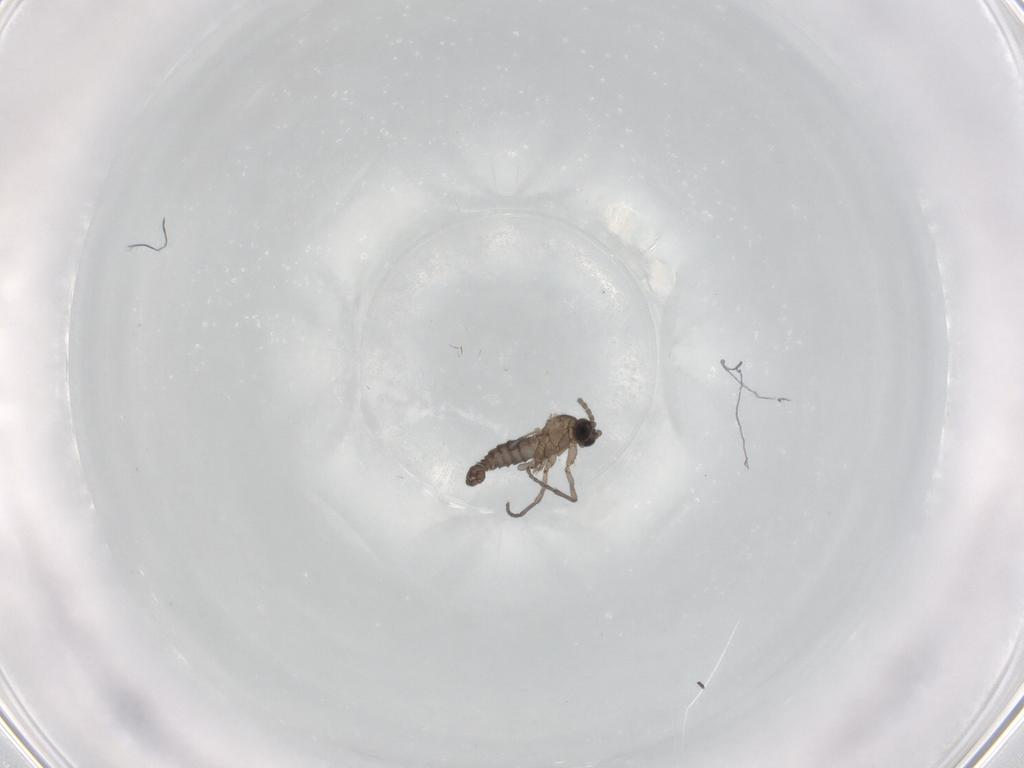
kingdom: Animalia
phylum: Arthropoda
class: Insecta
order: Diptera
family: Sciaridae
